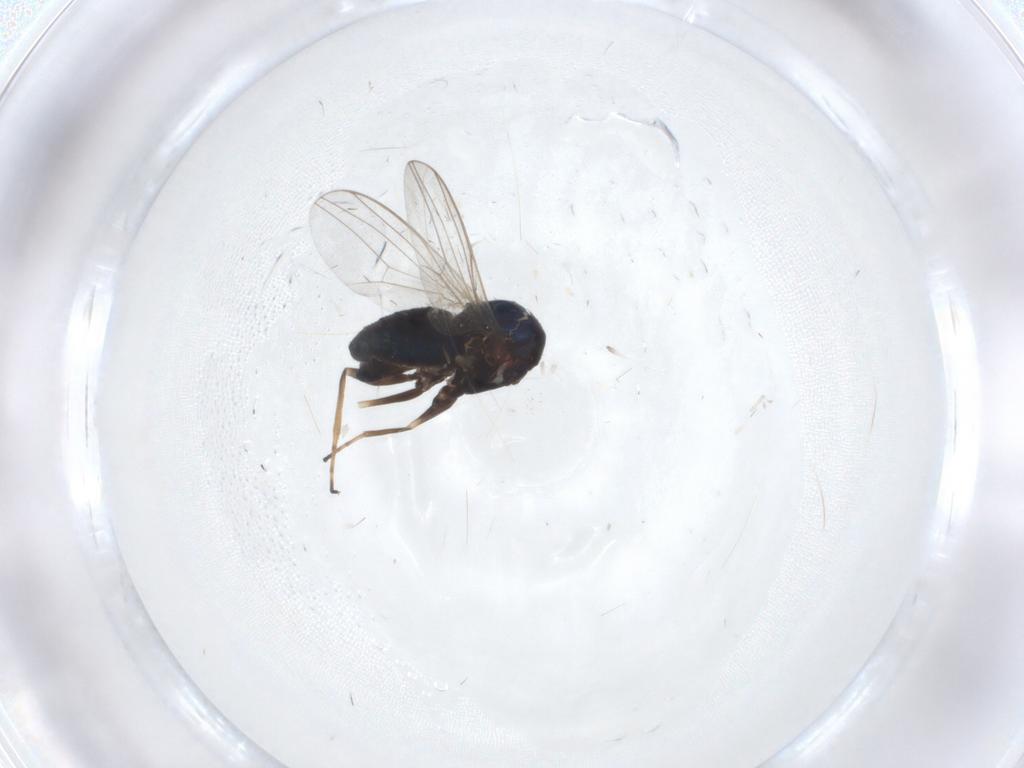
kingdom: Animalia
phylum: Arthropoda
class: Insecta
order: Diptera
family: Dolichopodidae
